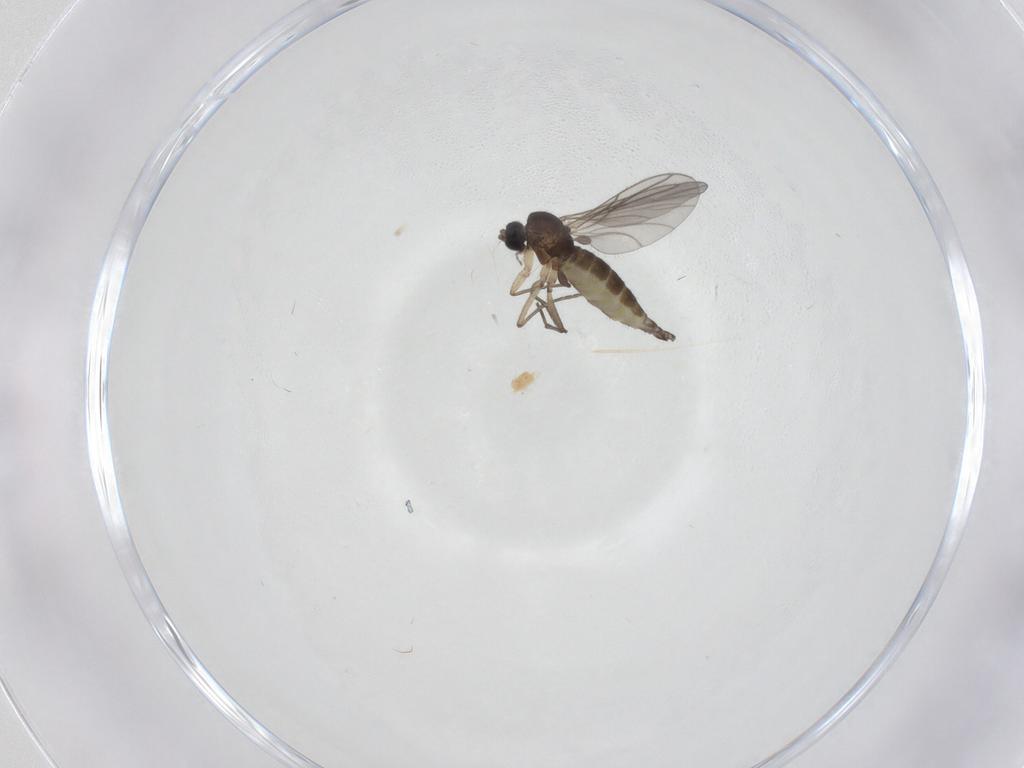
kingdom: Animalia
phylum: Arthropoda
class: Insecta
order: Diptera
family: Sciaridae
